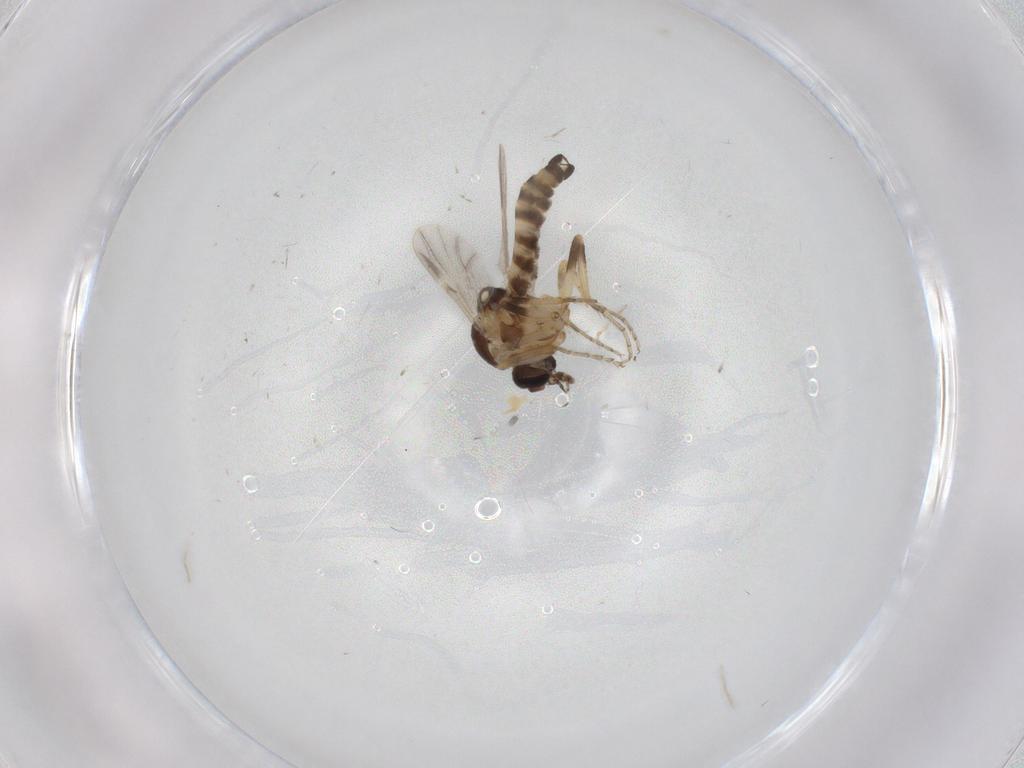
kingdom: Animalia
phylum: Arthropoda
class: Insecta
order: Diptera
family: Ceratopogonidae
